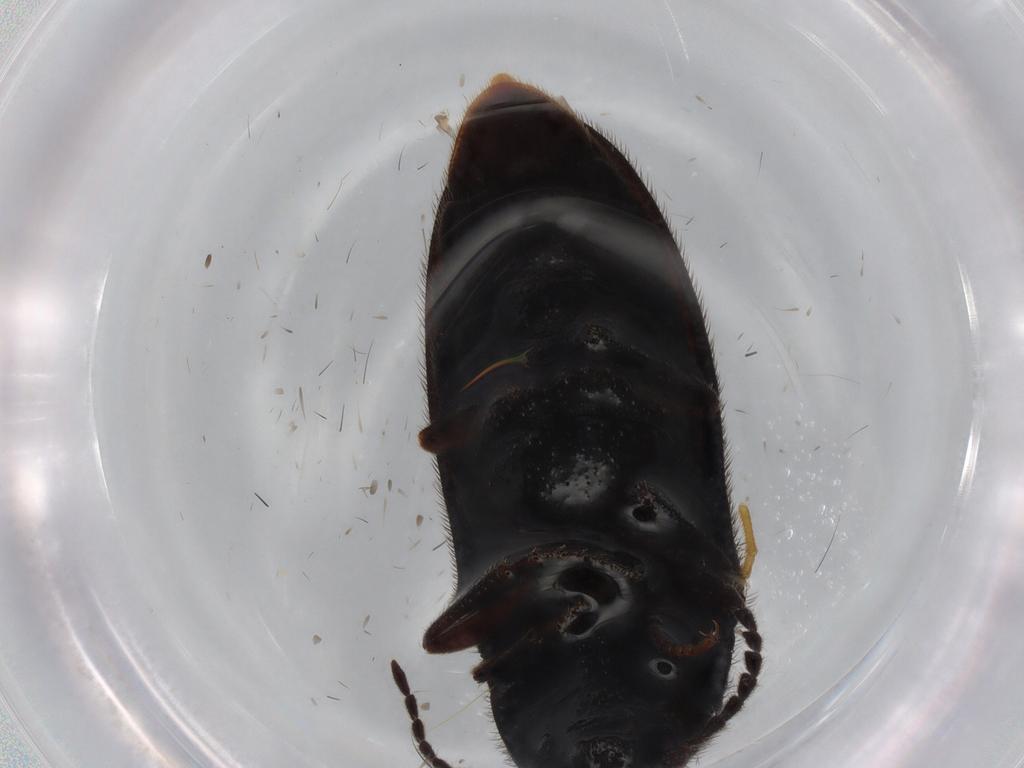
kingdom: Animalia
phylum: Arthropoda
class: Insecta
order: Coleoptera
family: Elateridae
